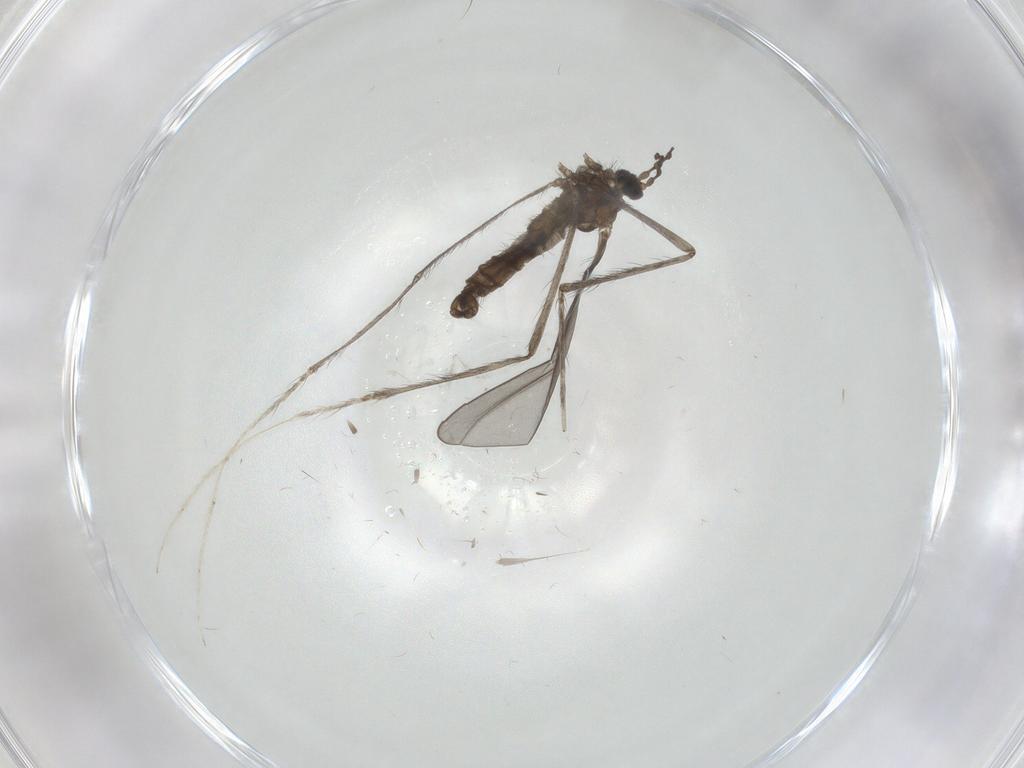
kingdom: Animalia
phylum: Arthropoda
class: Insecta
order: Diptera
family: Cecidomyiidae
